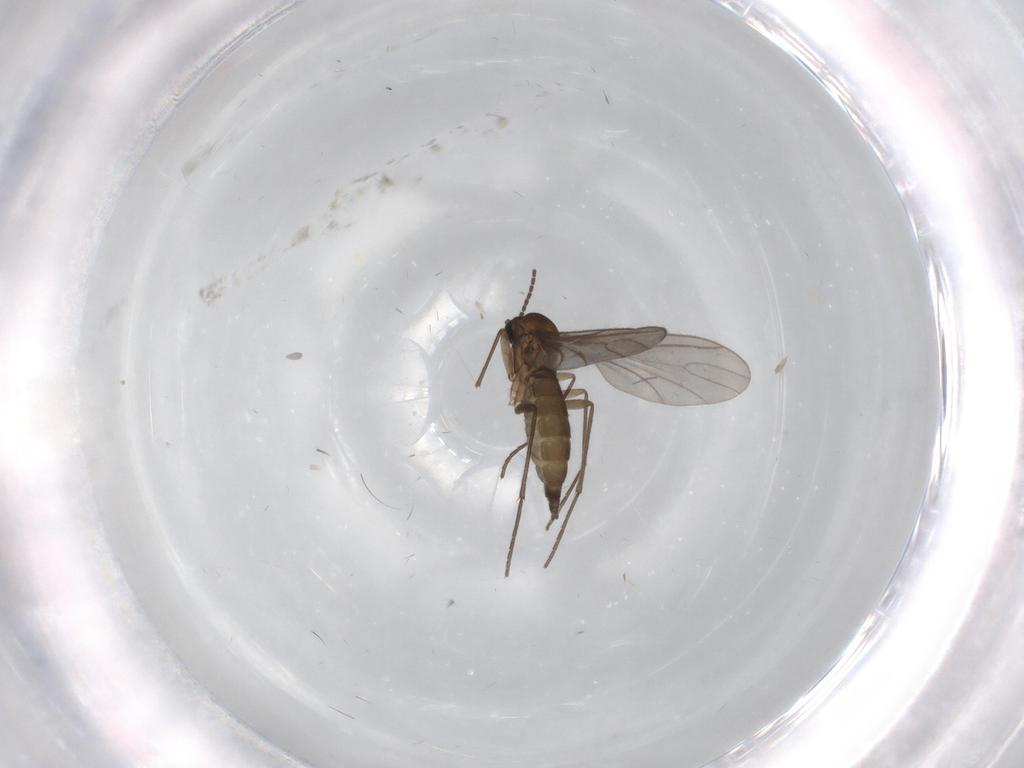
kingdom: Animalia
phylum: Arthropoda
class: Insecta
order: Diptera
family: Sciaridae
